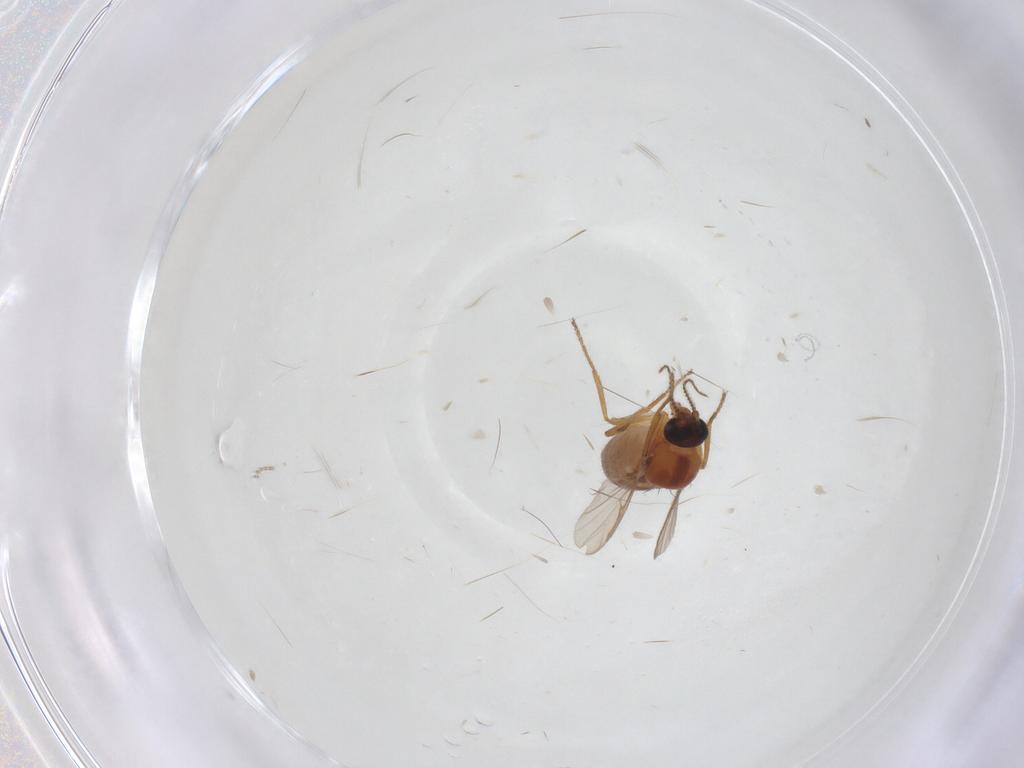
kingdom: Animalia
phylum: Arthropoda
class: Insecta
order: Diptera
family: Ceratopogonidae
